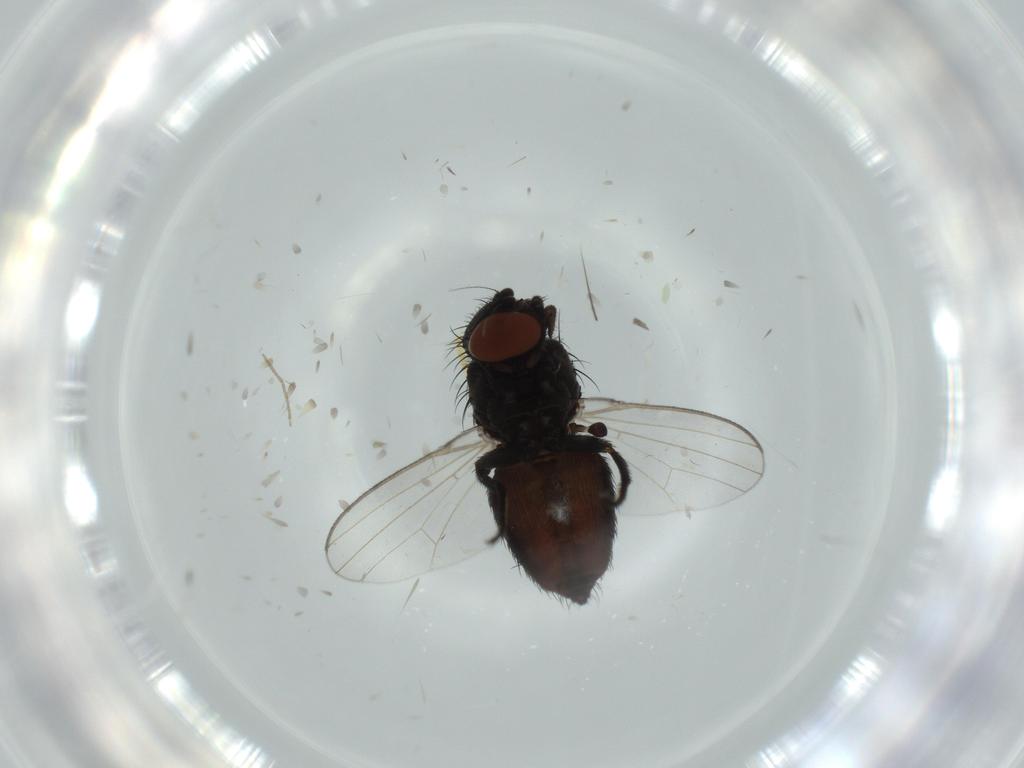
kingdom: Animalia
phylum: Arthropoda
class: Insecta
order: Diptera
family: Milichiidae
